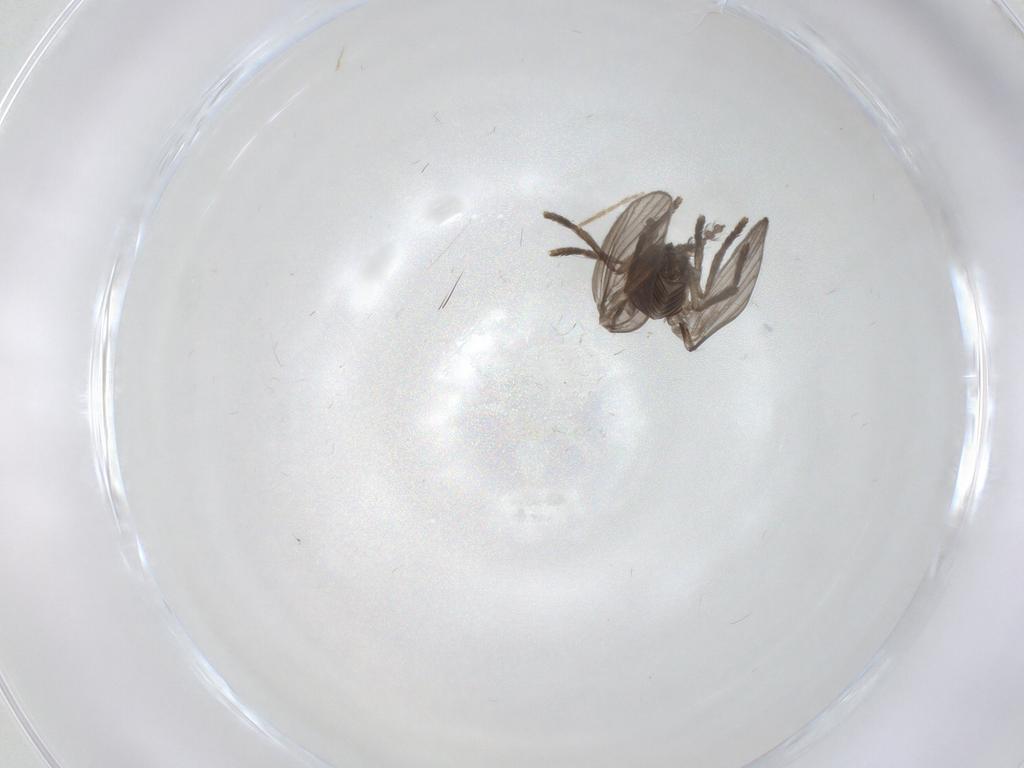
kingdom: Animalia
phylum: Arthropoda
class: Insecta
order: Diptera
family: Psychodidae
